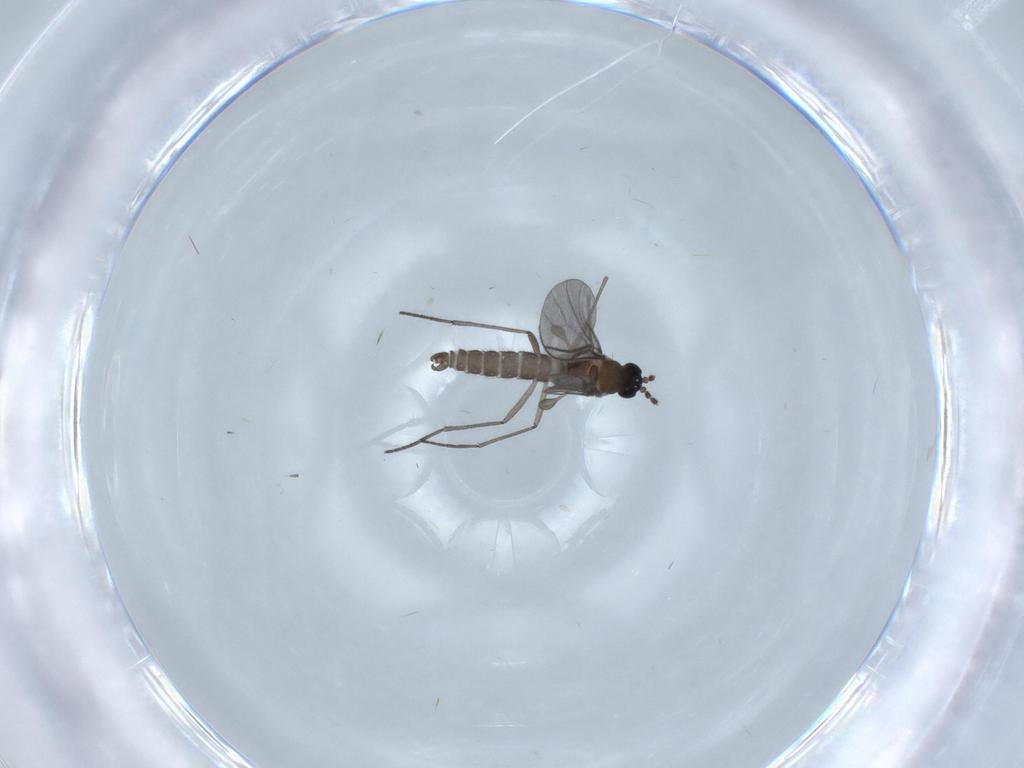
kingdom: Animalia
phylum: Arthropoda
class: Insecta
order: Diptera
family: Sciaridae
